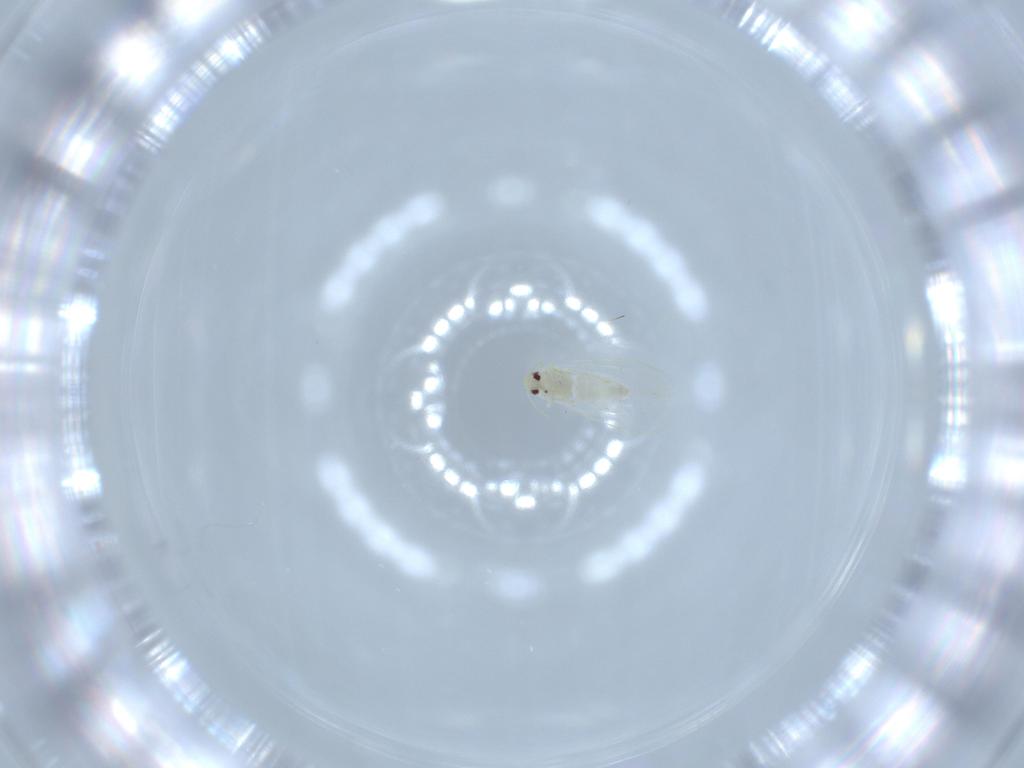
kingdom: Animalia
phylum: Arthropoda
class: Insecta
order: Hemiptera
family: Aleyrodidae
